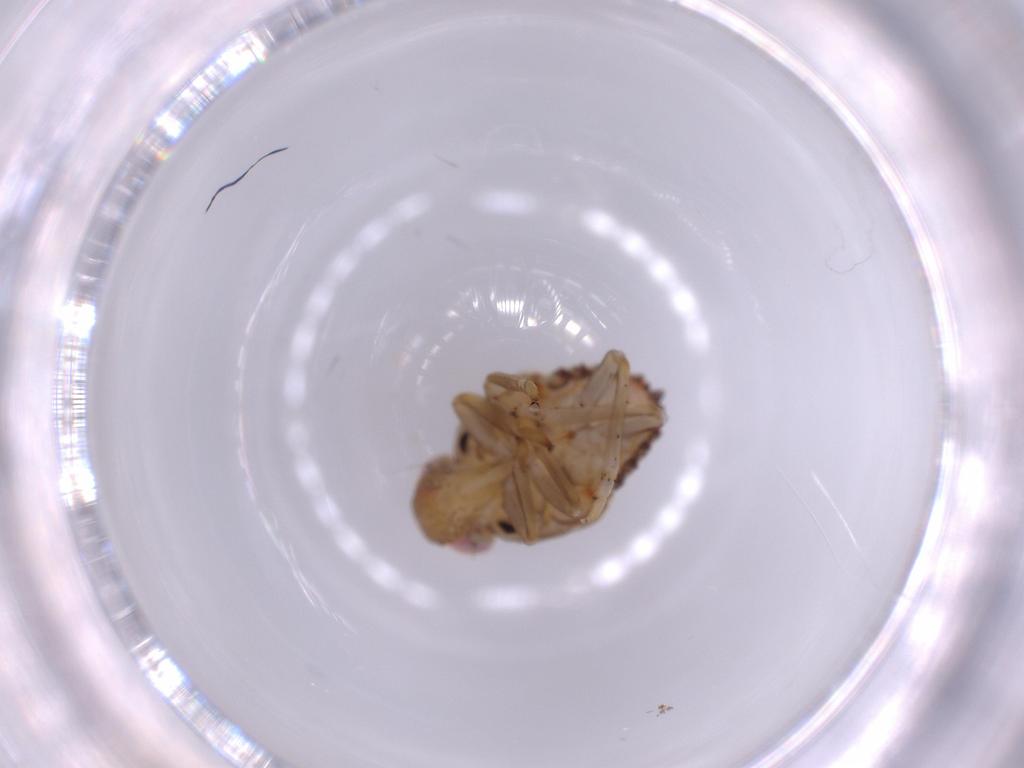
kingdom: Animalia
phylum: Arthropoda
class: Insecta
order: Hemiptera
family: Issidae
